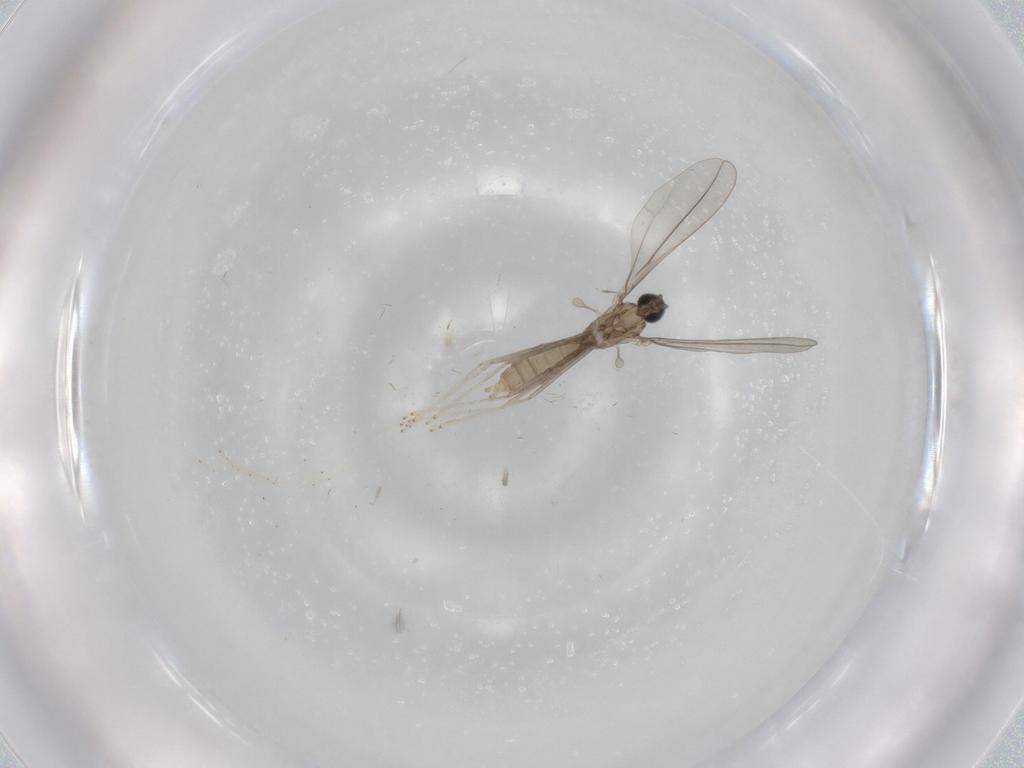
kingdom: Animalia
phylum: Arthropoda
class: Insecta
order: Diptera
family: Cecidomyiidae
